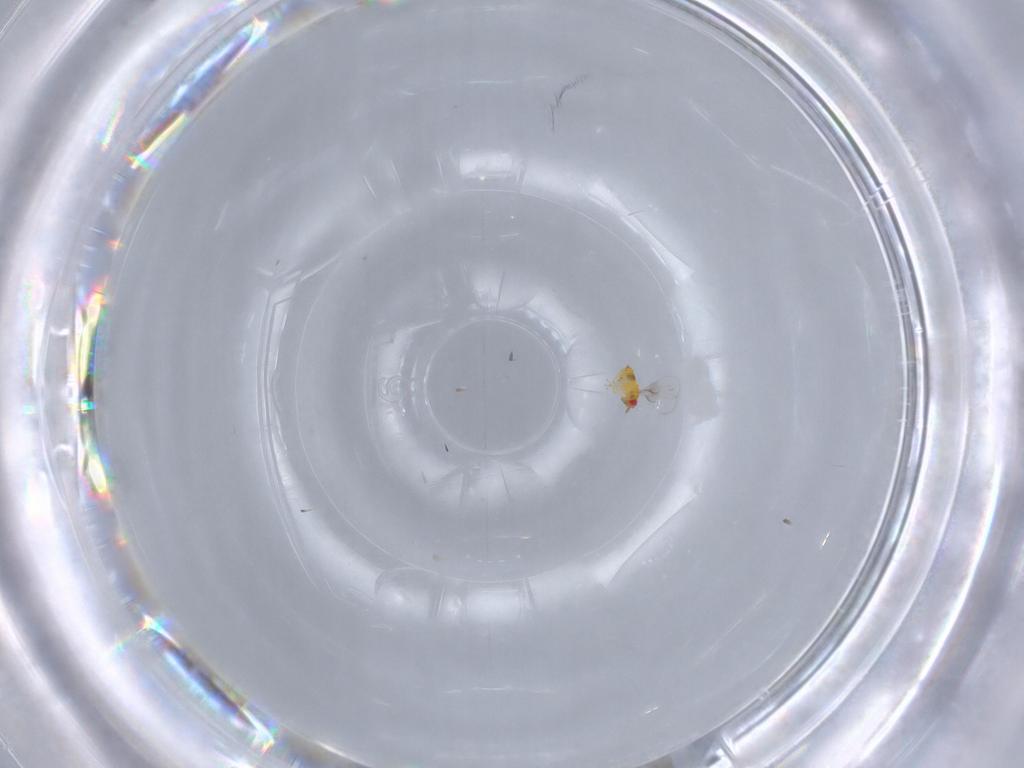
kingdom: Animalia
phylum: Arthropoda
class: Insecta
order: Hymenoptera
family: Trichogrammatidae
